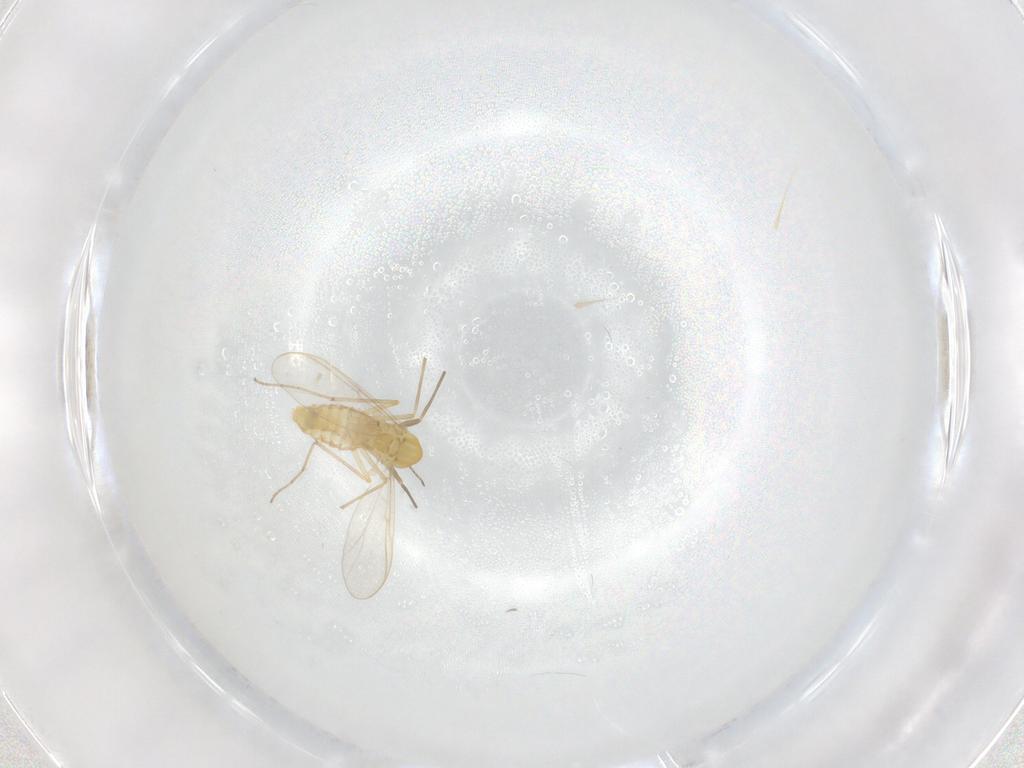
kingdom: Animalia
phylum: Arthropoda
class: Insecta
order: Diptera
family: Chironomidae
